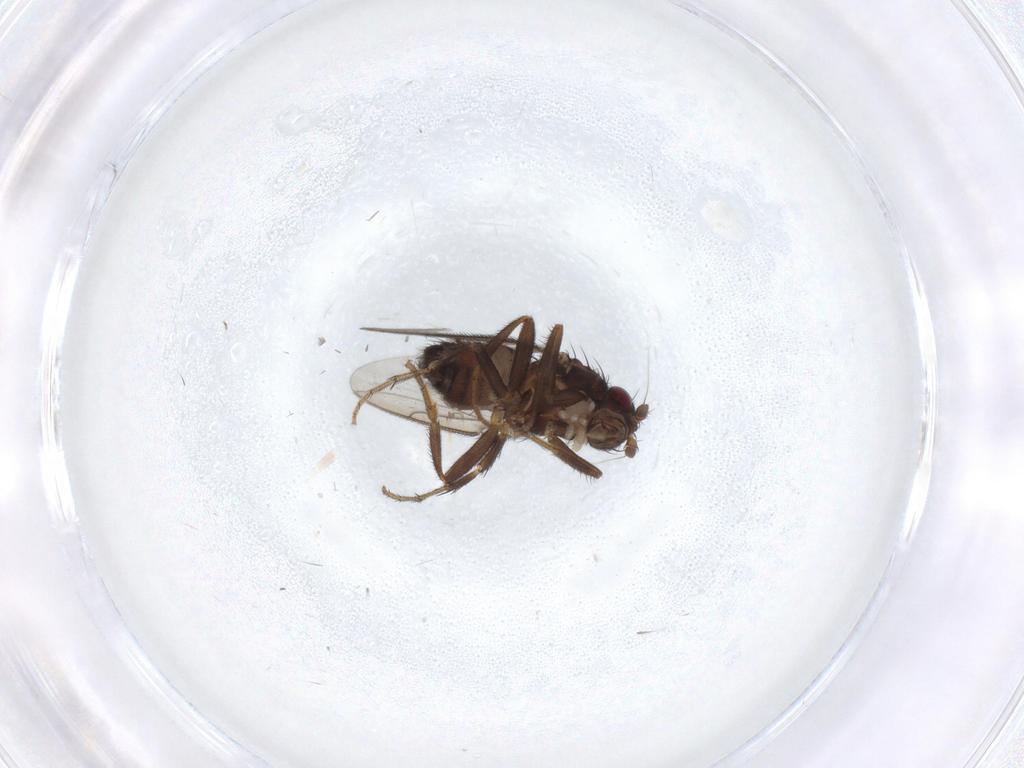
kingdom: Animalia
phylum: Arthropoda
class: Insecta
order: Diptera
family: Sphaeroceridae
